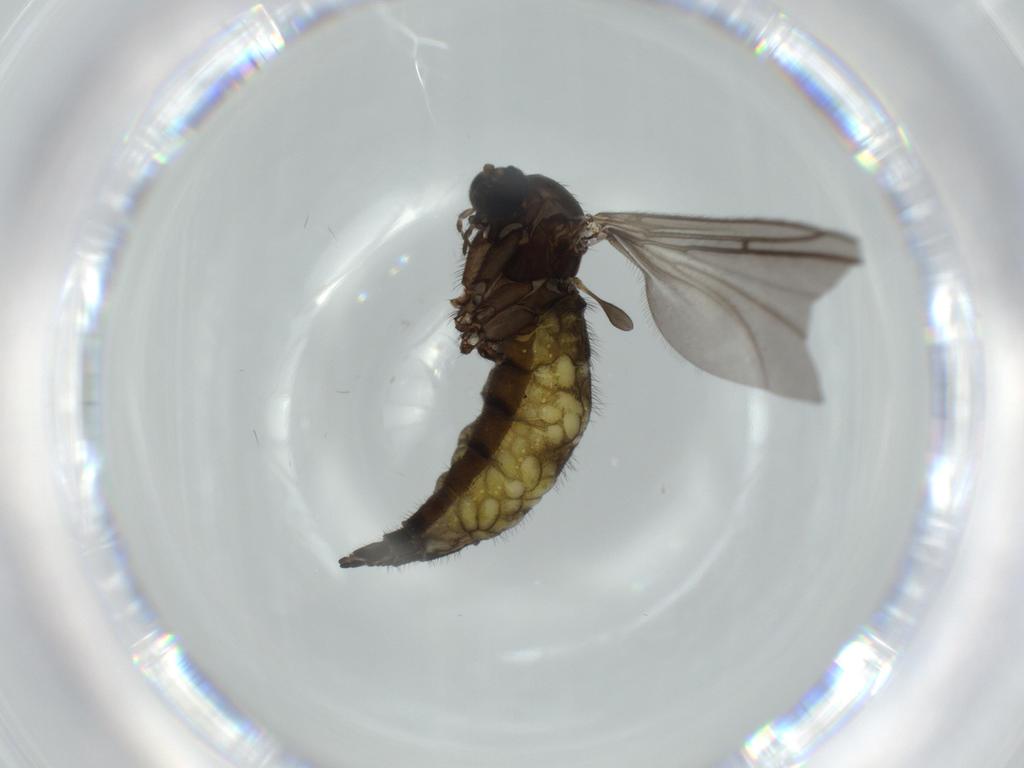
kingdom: Animalia
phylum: Arthropoda
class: Insecta
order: Diptera
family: Sciaridae
